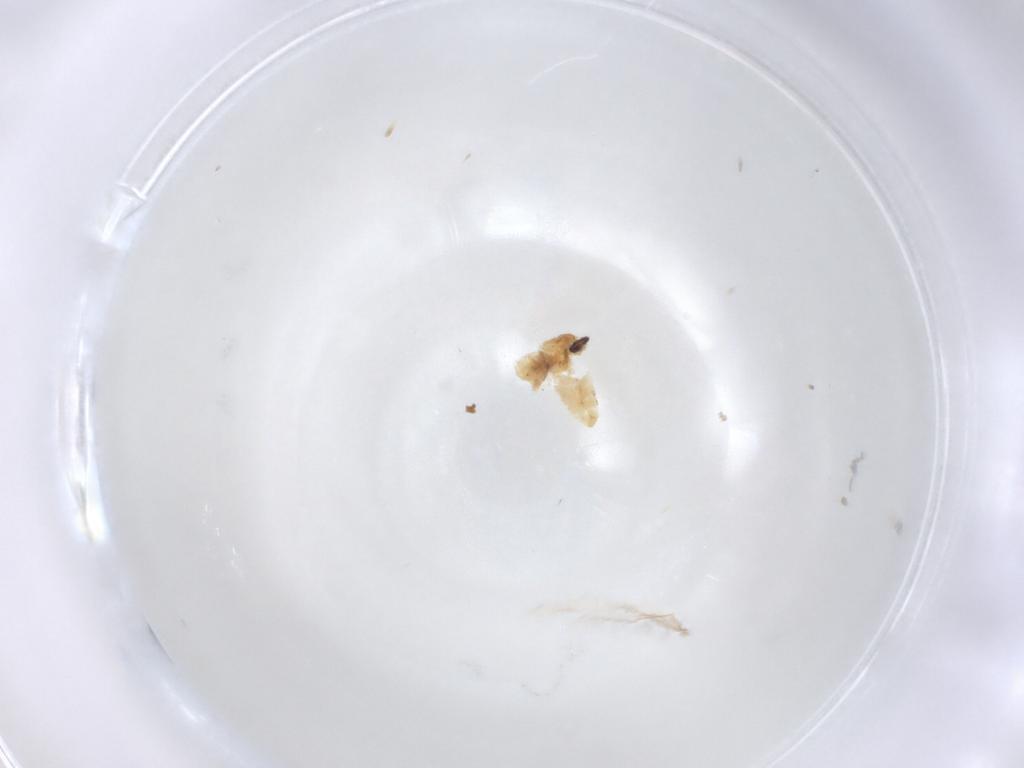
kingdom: Animalia
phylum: Arthropoda
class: Insecta
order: Diptera
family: Cecidomyiidae
